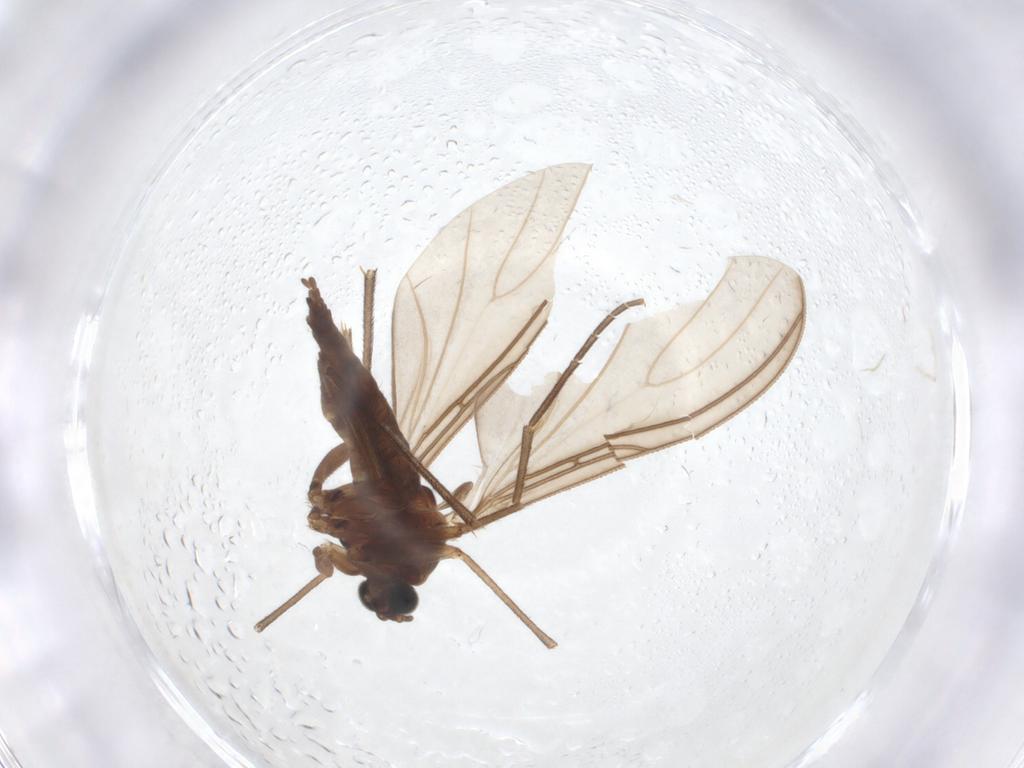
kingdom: Animalia
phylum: Arthropoda
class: Insecta
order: Diptera
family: Sciaridae
